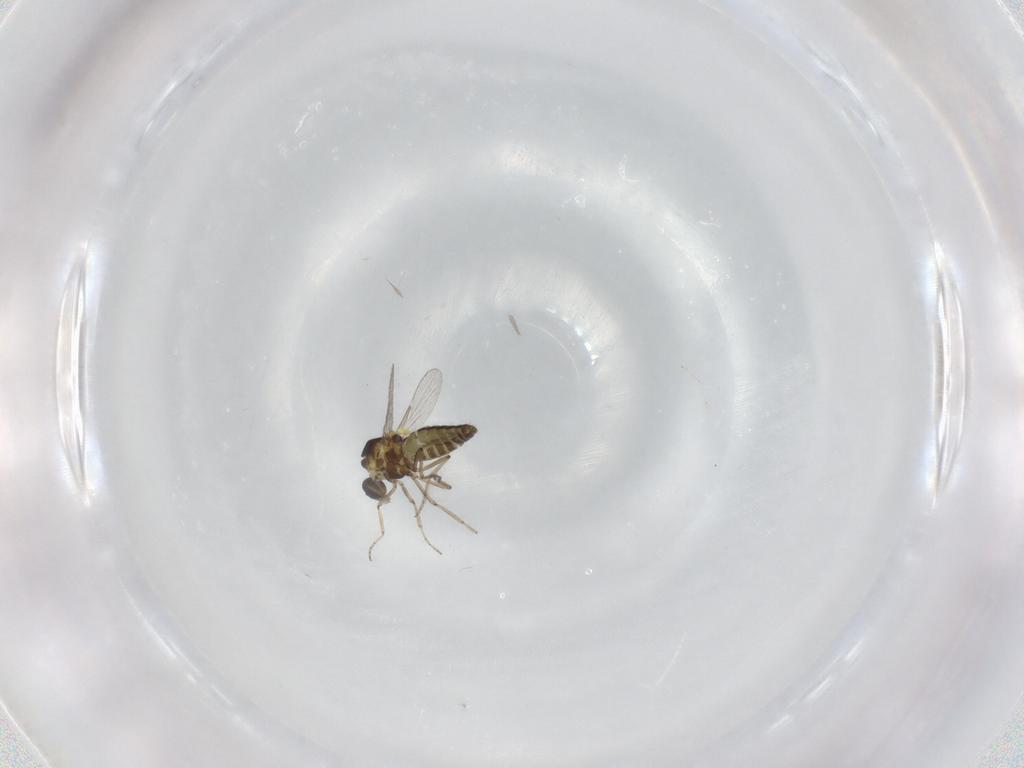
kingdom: Animalia
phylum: Arthropoda
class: Insecta
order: Diptera
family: Ceratopogonidae
